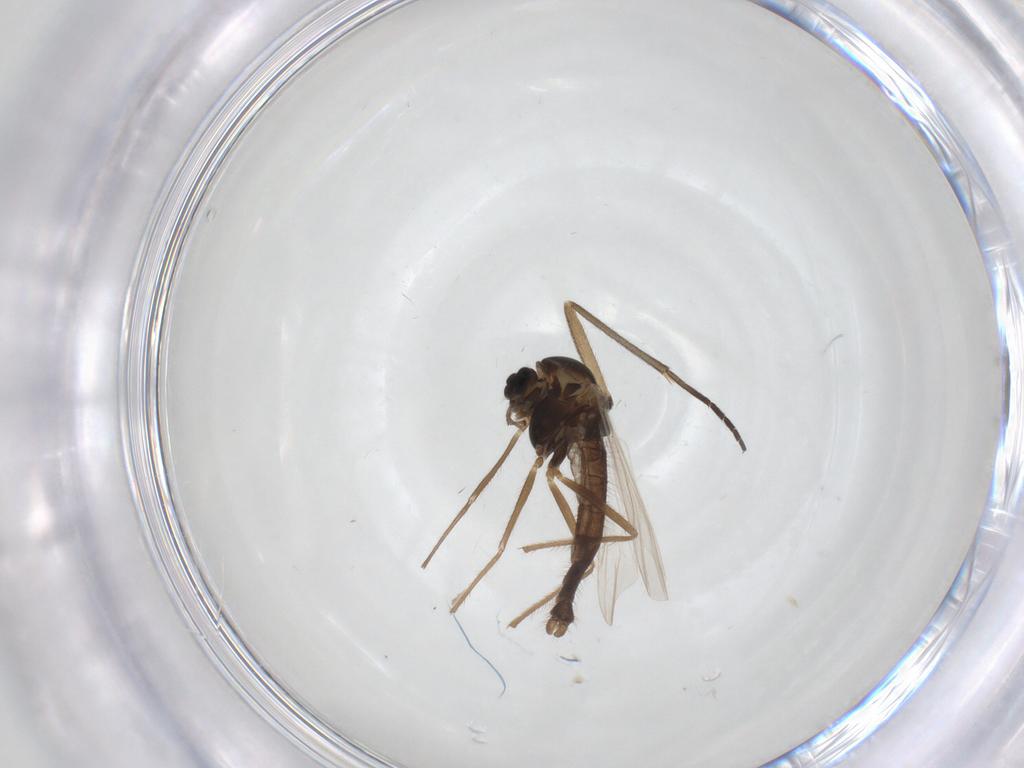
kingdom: Animalia
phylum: Arthropoda
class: Insecta
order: Diptera
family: Chironomidae
